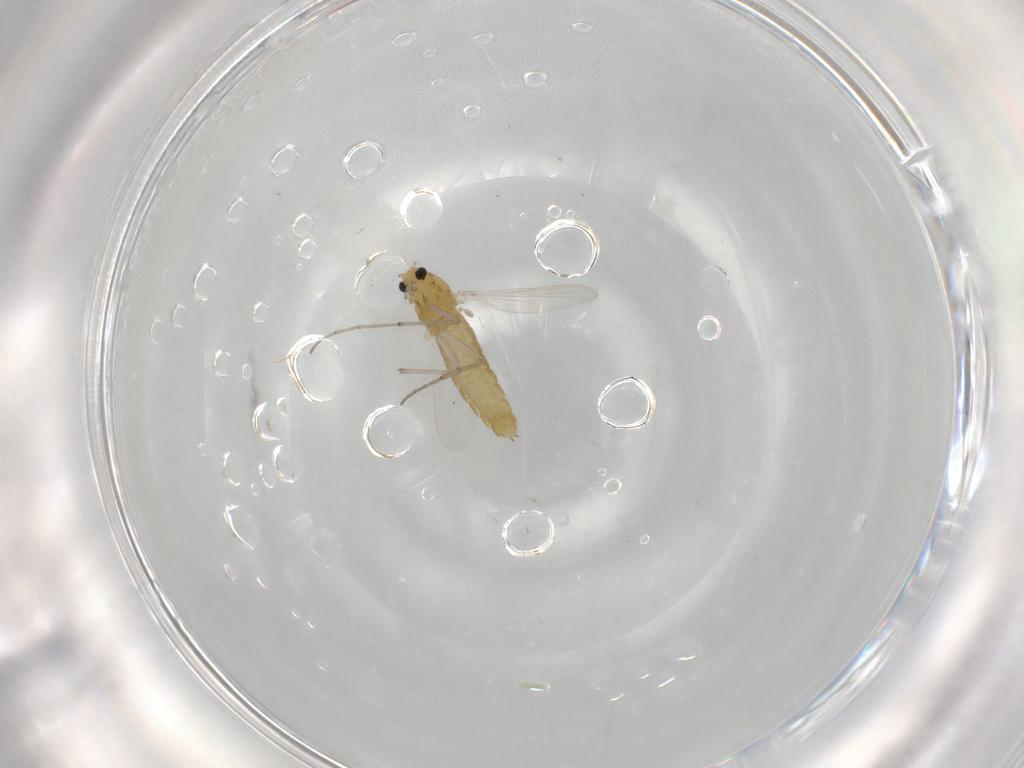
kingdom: Animalia
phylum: Arthropoda
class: Insecta
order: Diptera
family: Chironomidae
